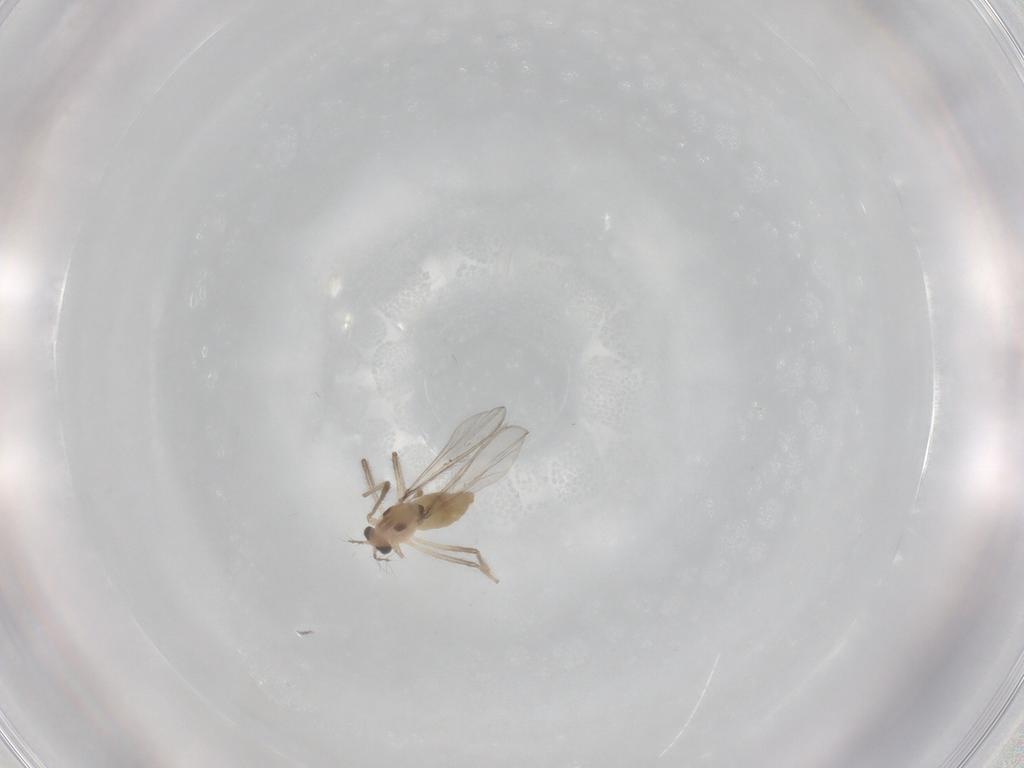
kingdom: Animalia
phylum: Arthropoda
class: Insecta
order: Diptera
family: Chironomidae
